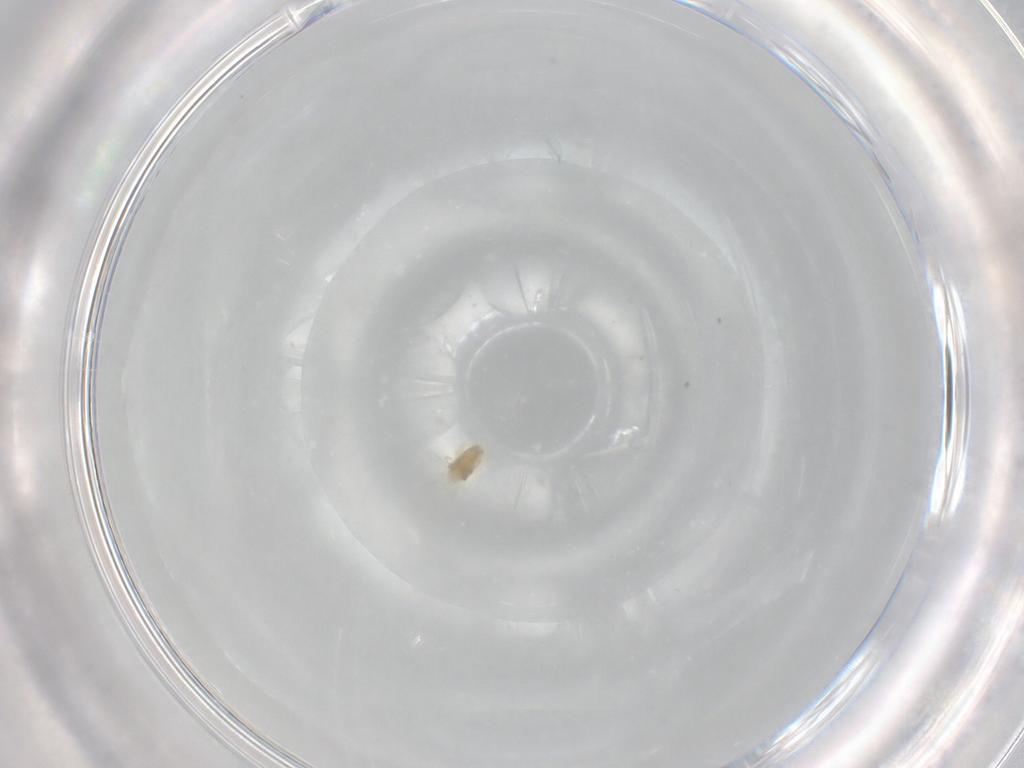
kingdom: Animalia
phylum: Arthropoda
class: Arachnida
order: Trombidiformes
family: Eupodidae
